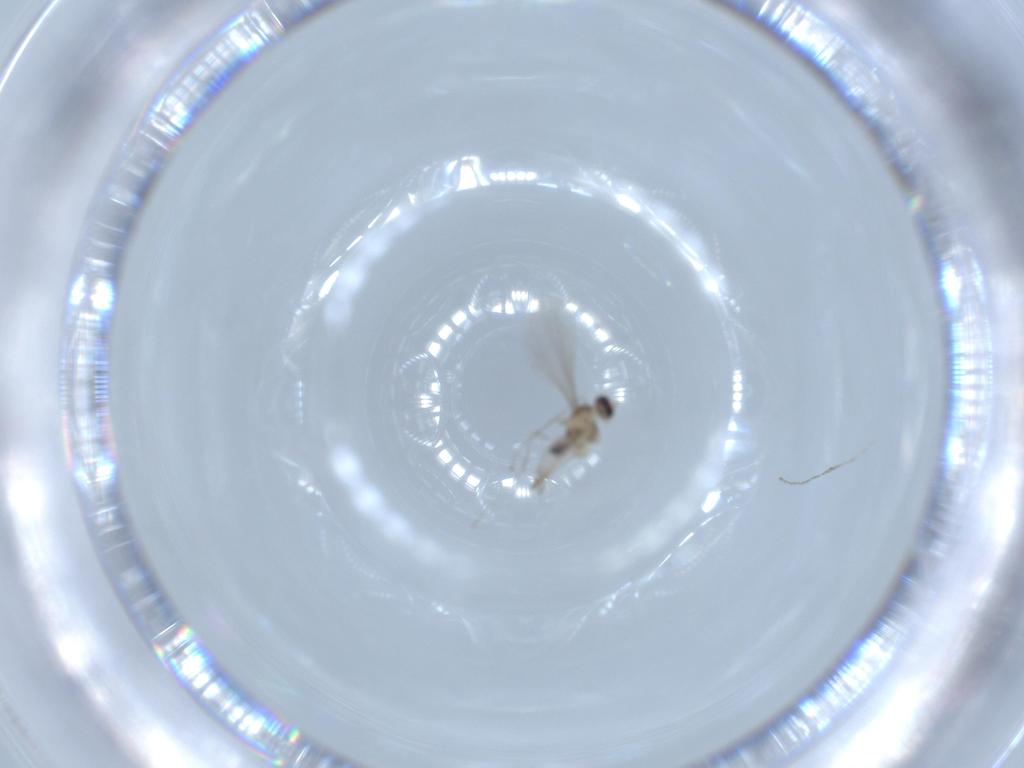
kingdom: Animalia
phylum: Arthropoda
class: Insecta
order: Diptera
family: Cecidomyiidae
